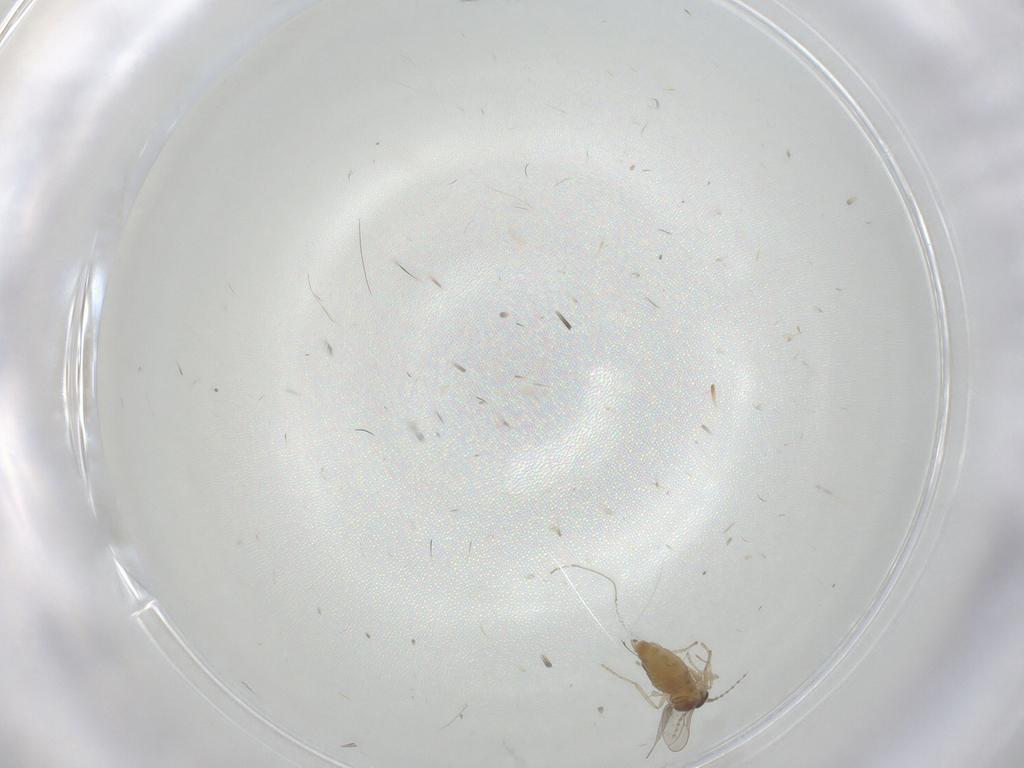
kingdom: Animalia
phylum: Arthropoda
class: Insecta
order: Diptera
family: Cecidomyiidae
